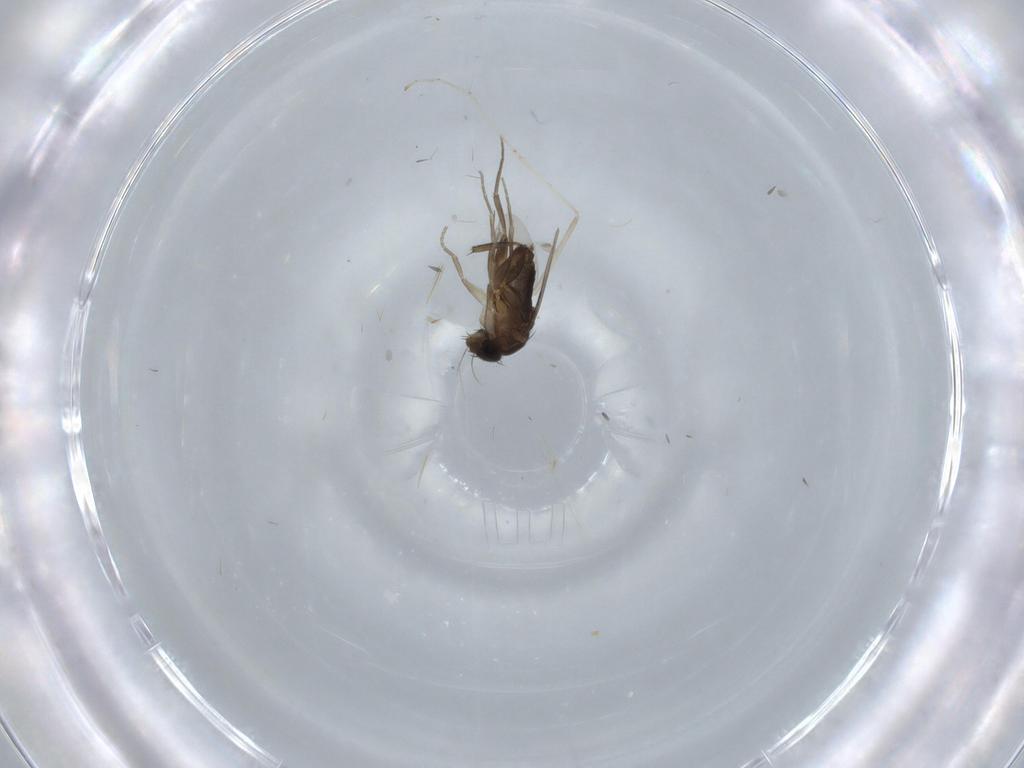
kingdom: Animalia
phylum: Arthropoda
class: Insecta
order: Diptera
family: Phoridae
